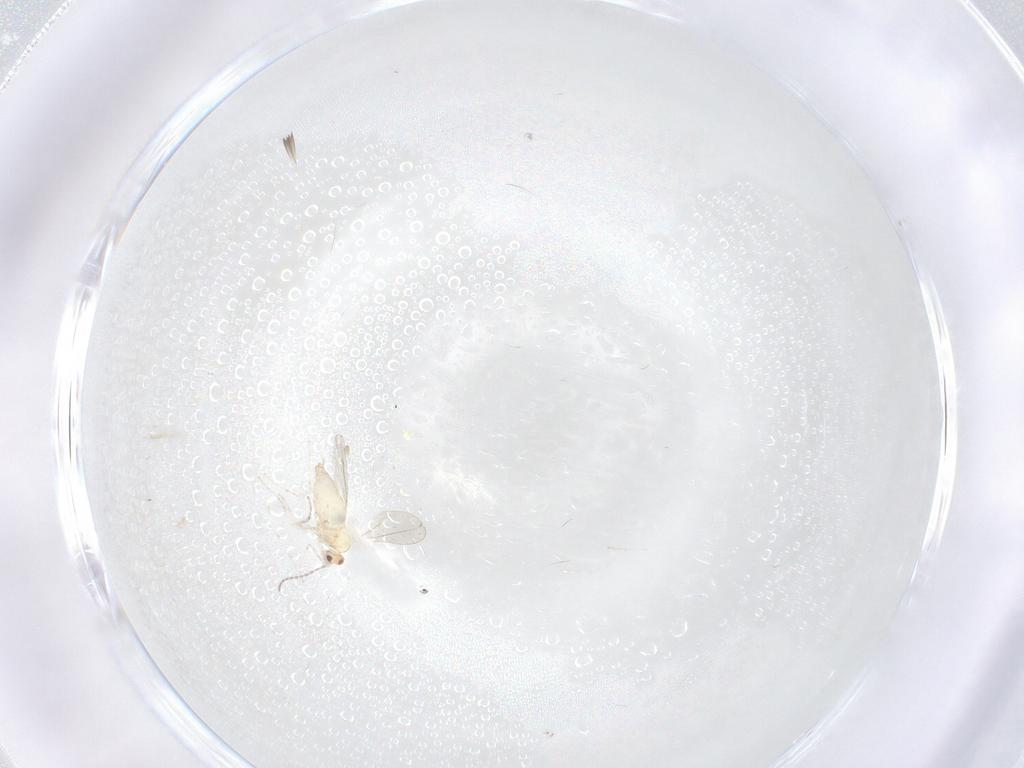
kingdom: Animalia
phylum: Arthropoda
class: Insecta
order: Diptera
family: Cecidomyiidae
